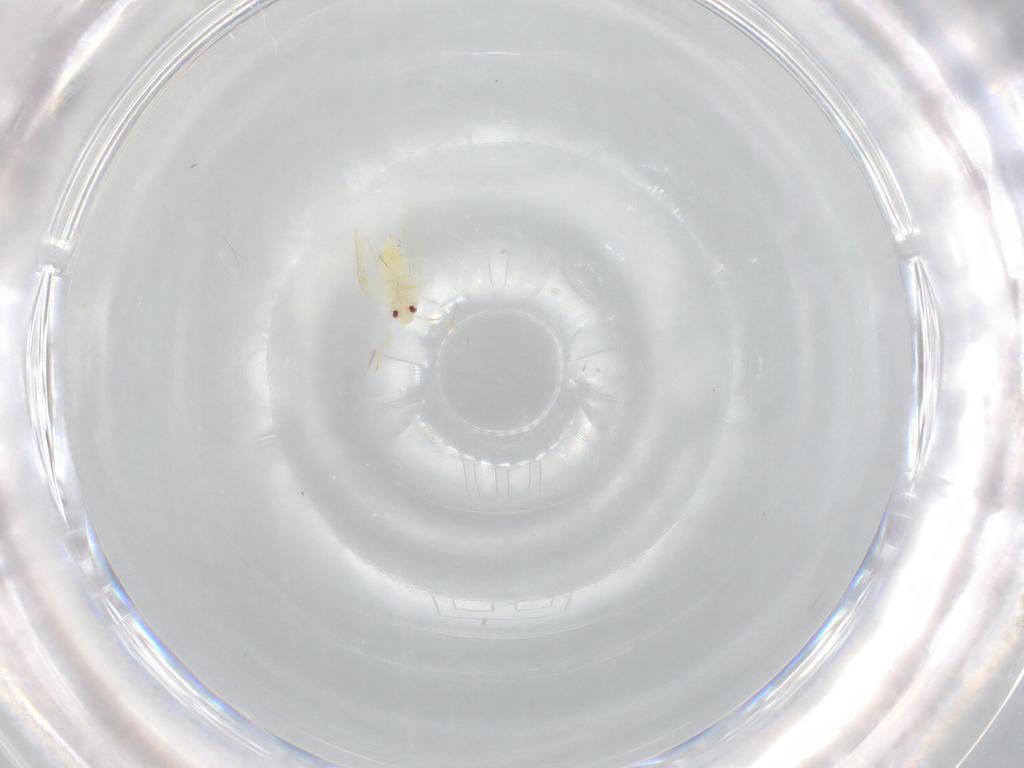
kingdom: Animalia
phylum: Arthropoda
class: Insecta
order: Hemiptera
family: Aleyrodidae
